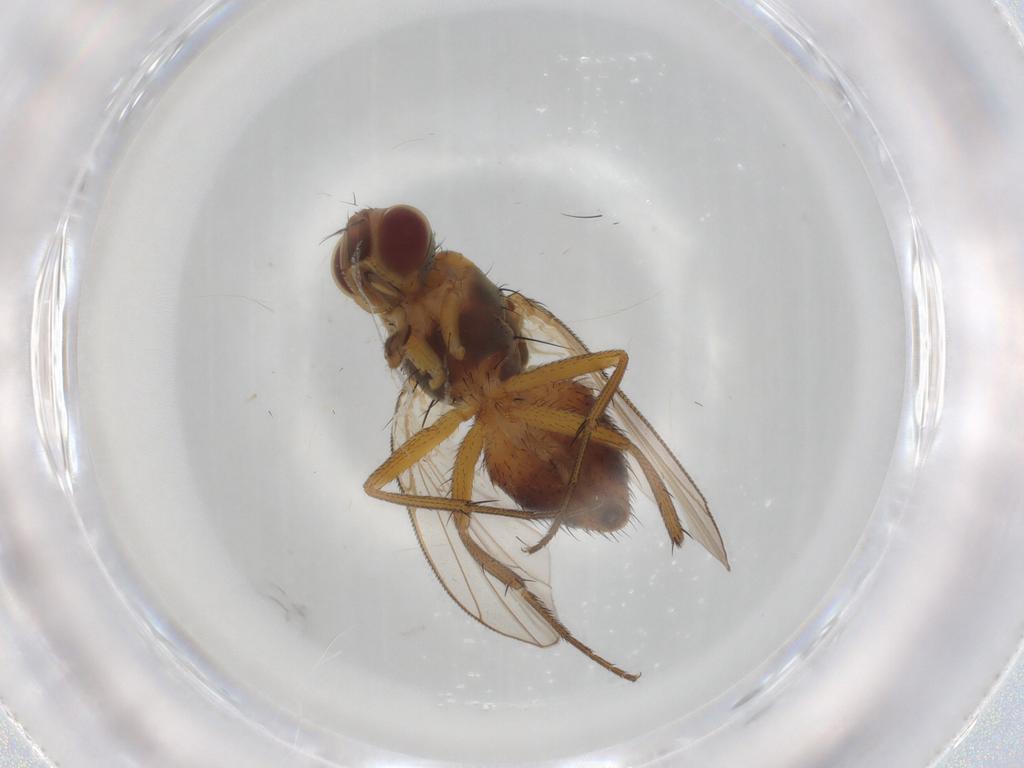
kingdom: Animalia
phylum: Arthropoda
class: Insecta
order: Diptera
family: Muscidae
